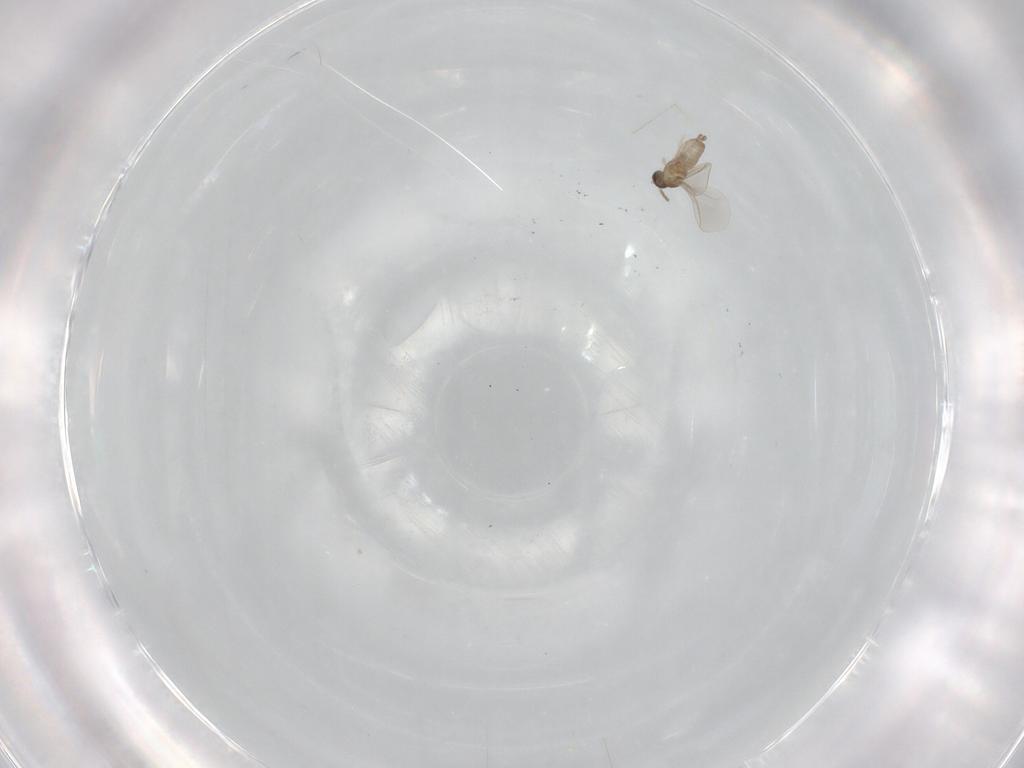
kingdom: Animalia
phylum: Arthropoda
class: Insecta
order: Diptera
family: Cecidomyiidae
